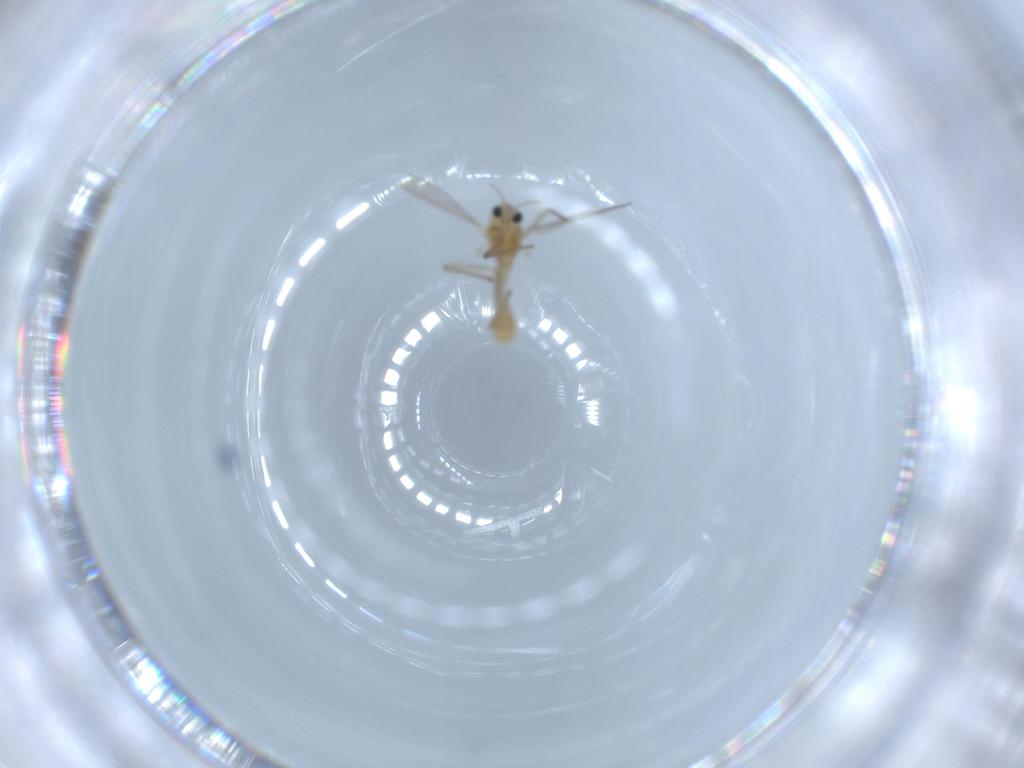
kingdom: Animalia
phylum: Arthropoda
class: Insecta
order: Diptera
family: Chironomidae
